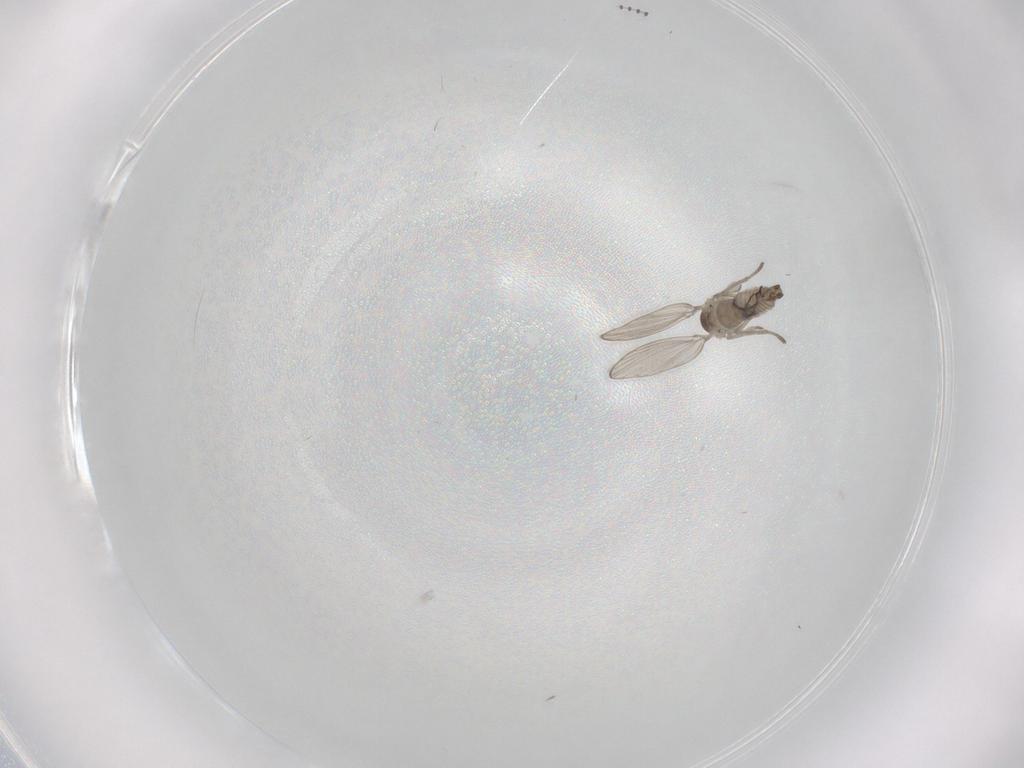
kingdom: Animalia
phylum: Arthropoda
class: Insecta
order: Diptera
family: Psychodidae
